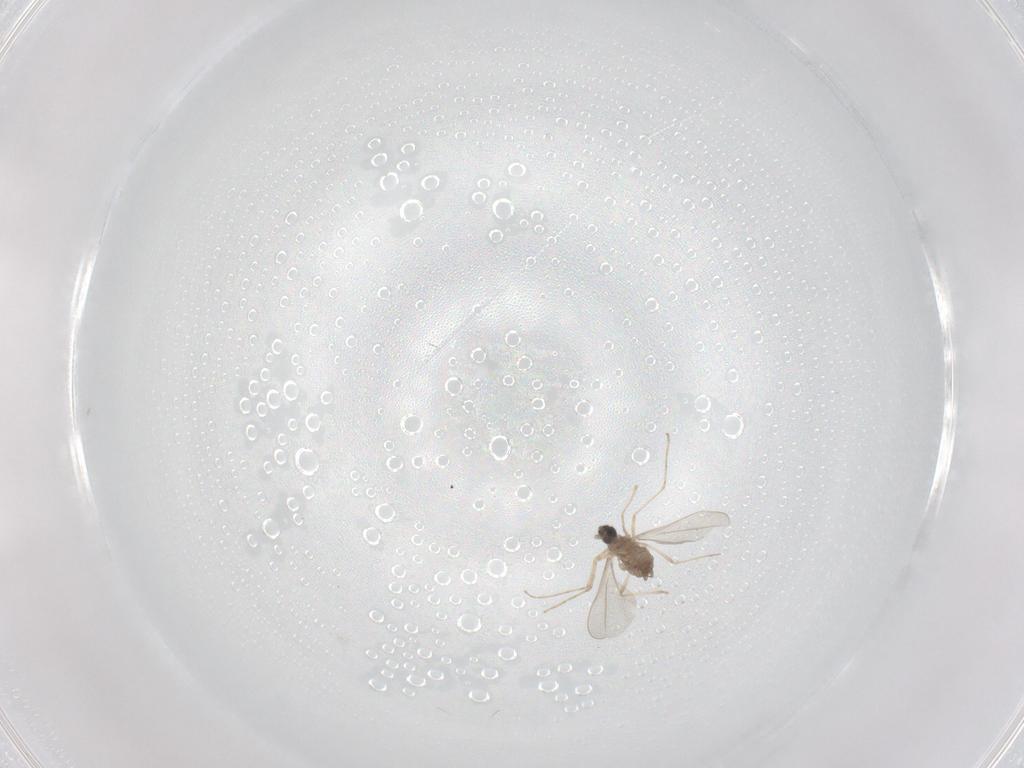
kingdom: Animalia
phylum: Arthropoda
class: Insecta
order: Diptera
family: Cecidomyiidae
